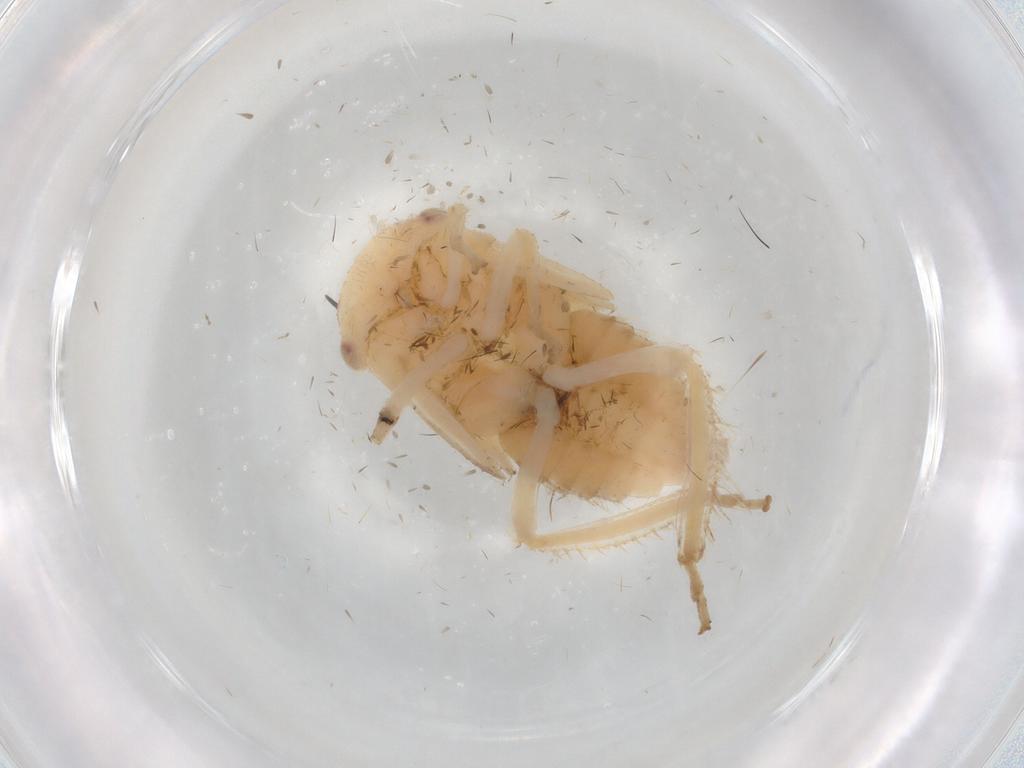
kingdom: Animalia
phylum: Arthropoda
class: Insecta
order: Hemiptera
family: Cicadellidae
